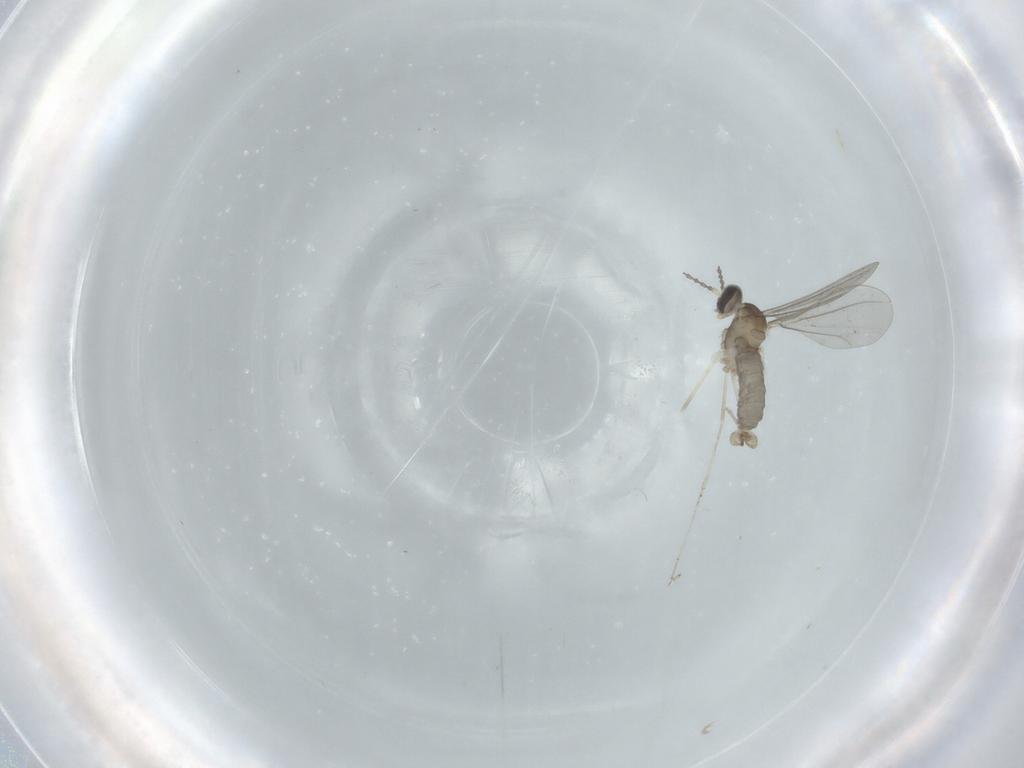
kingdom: Animalia
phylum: Arthropoda
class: Insecta
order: Diptera
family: Cecidomyiidae
